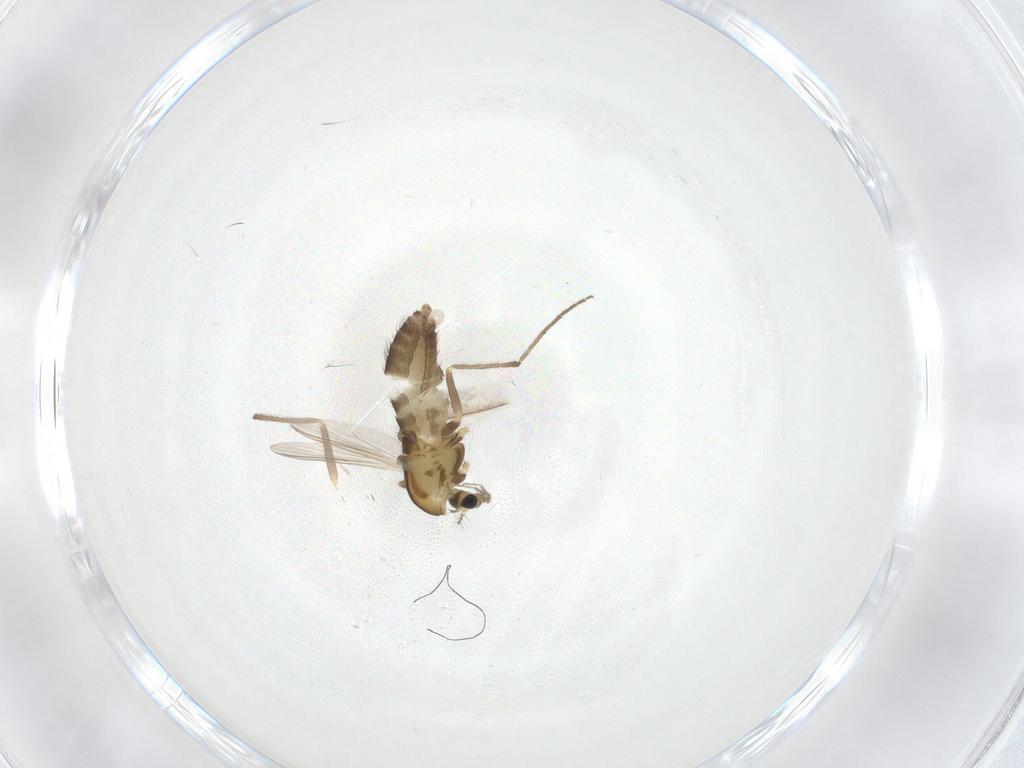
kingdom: Animalia
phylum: Arthropoda
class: Insecta
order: Diptera
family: Chironomidae
